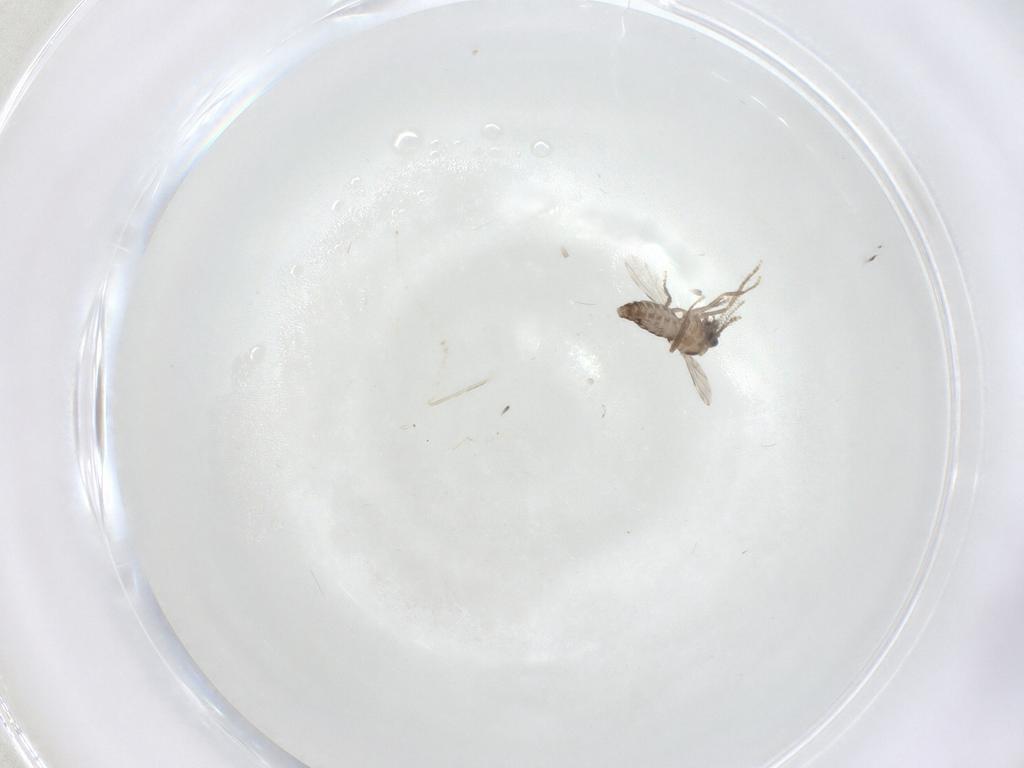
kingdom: Animalia
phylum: Arthropoda
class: Insecta
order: Diptera
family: Cecidomyiidae
